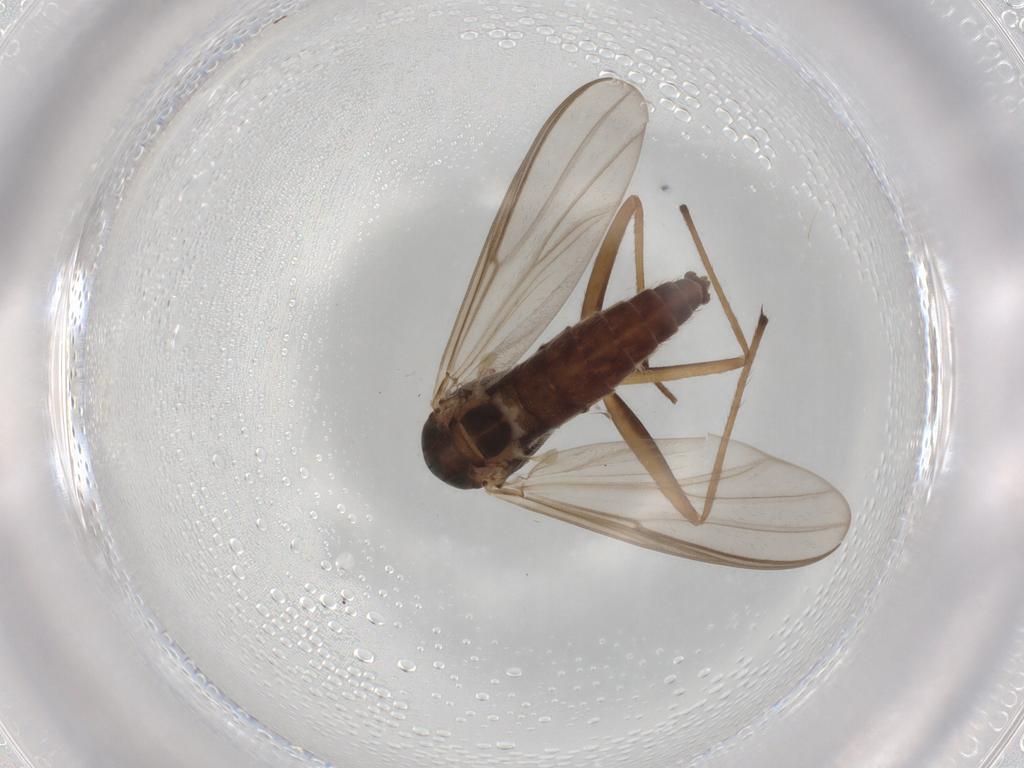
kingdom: Animalia
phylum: Arthropoda
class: Insecta
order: Diptera
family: Chironomidae
